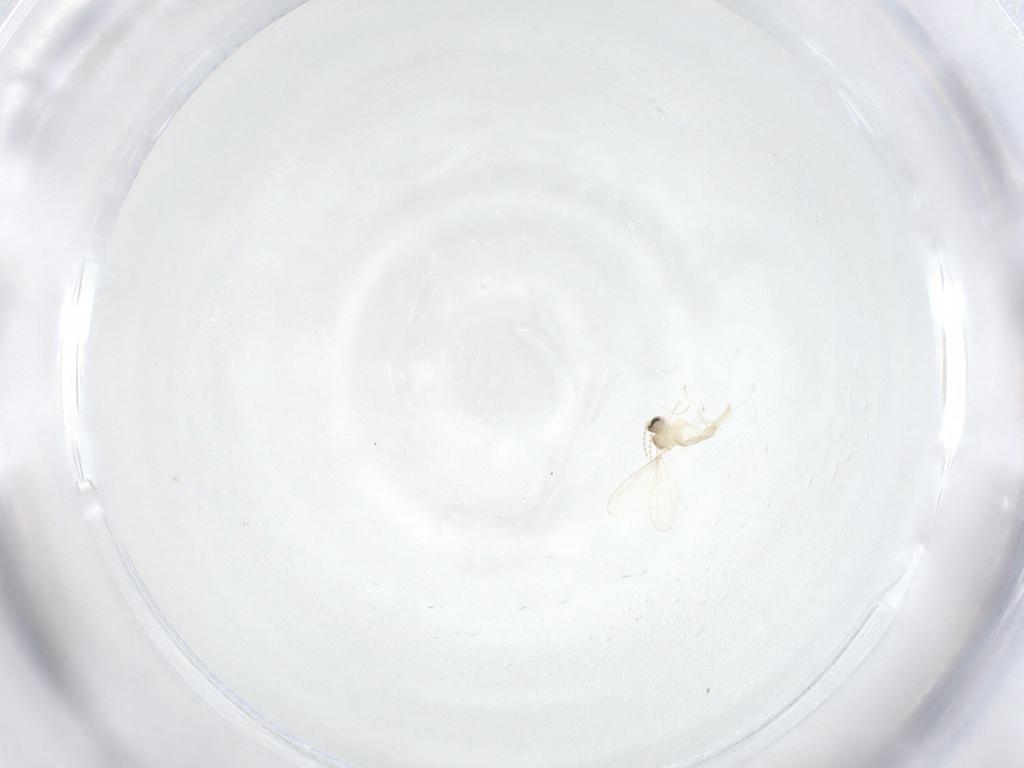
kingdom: Animalia
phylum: Arthropoda
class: Insecta
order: Diptera
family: Cecidomyiidae
